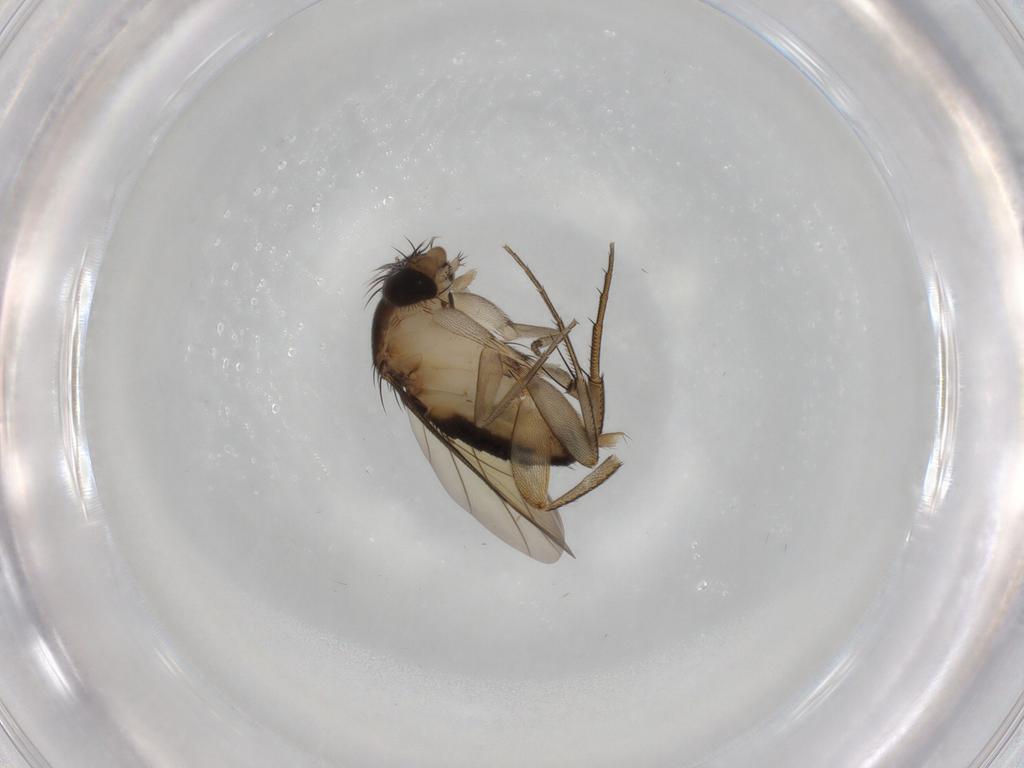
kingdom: Animalia
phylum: Arthropoda
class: Insecta
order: Diptera
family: Cecidomyiidae
